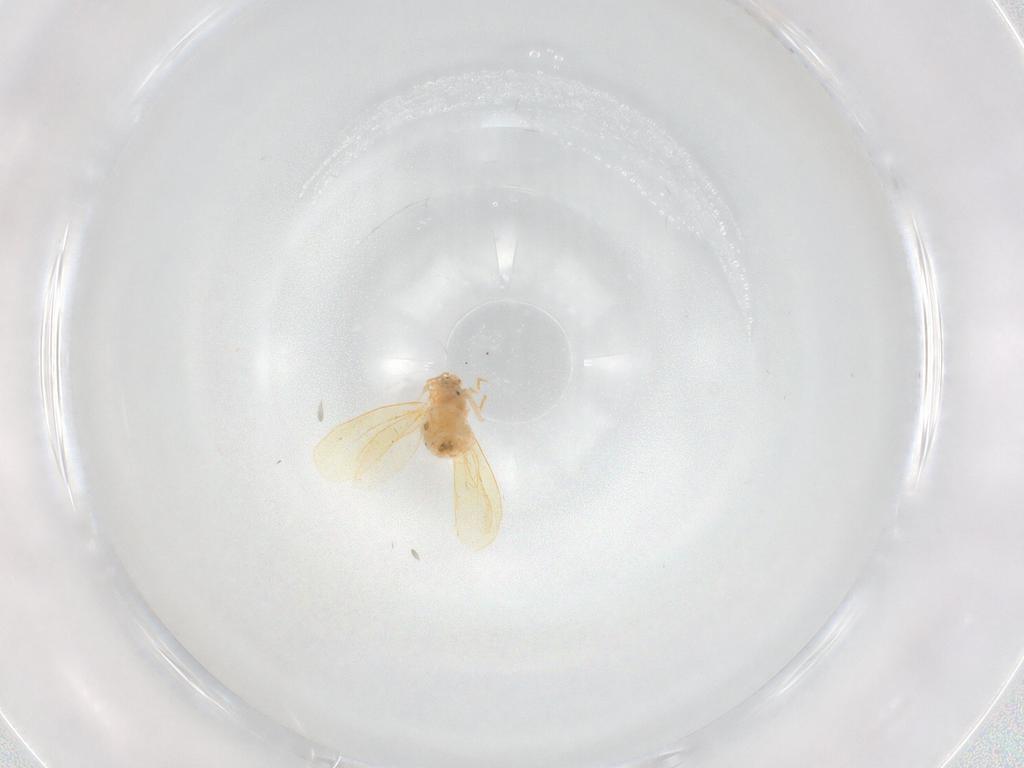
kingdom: Animalia
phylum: Arthropoda
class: Insecta
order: Hemiptera
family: Aleyrodidae
